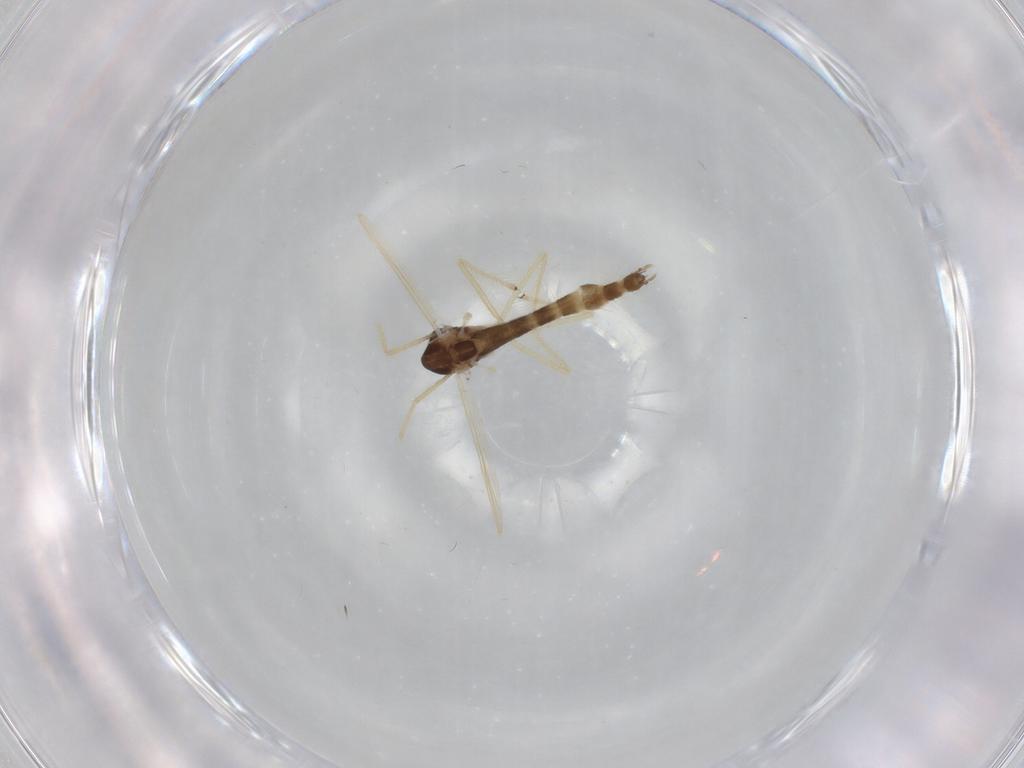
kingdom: Animalia
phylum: Arthropoda
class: Insecta
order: Diptera
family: Chironomidae
